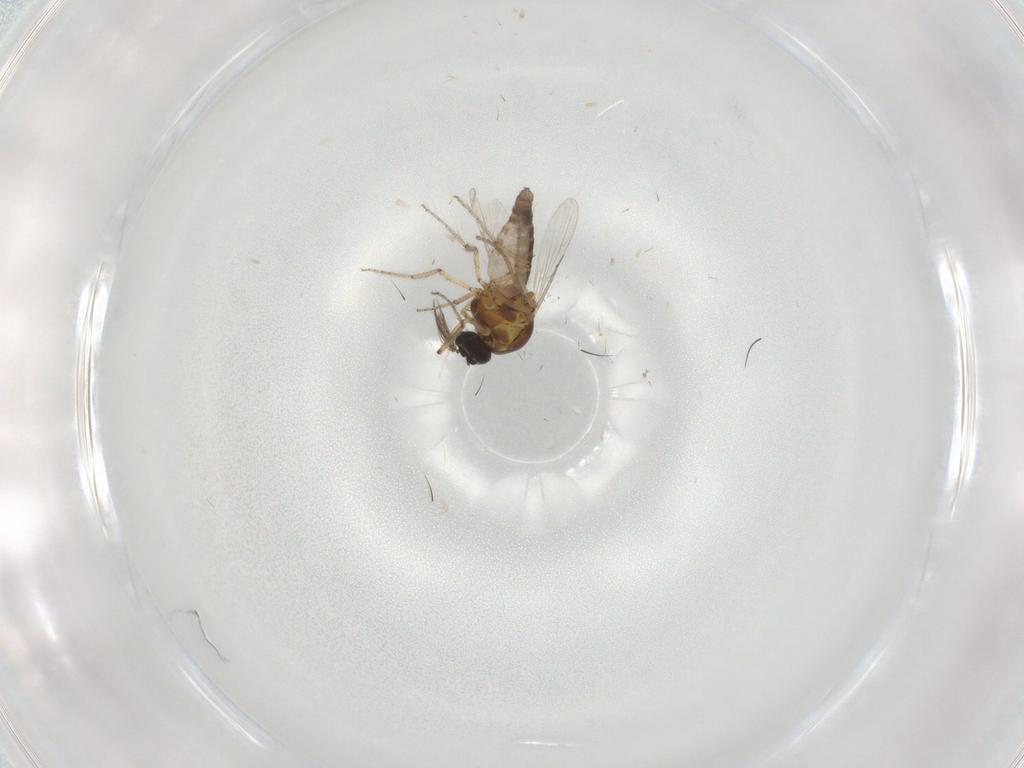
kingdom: Animalia
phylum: Arthropoda
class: Insecta
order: Diptera
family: Ceratopogonidae
